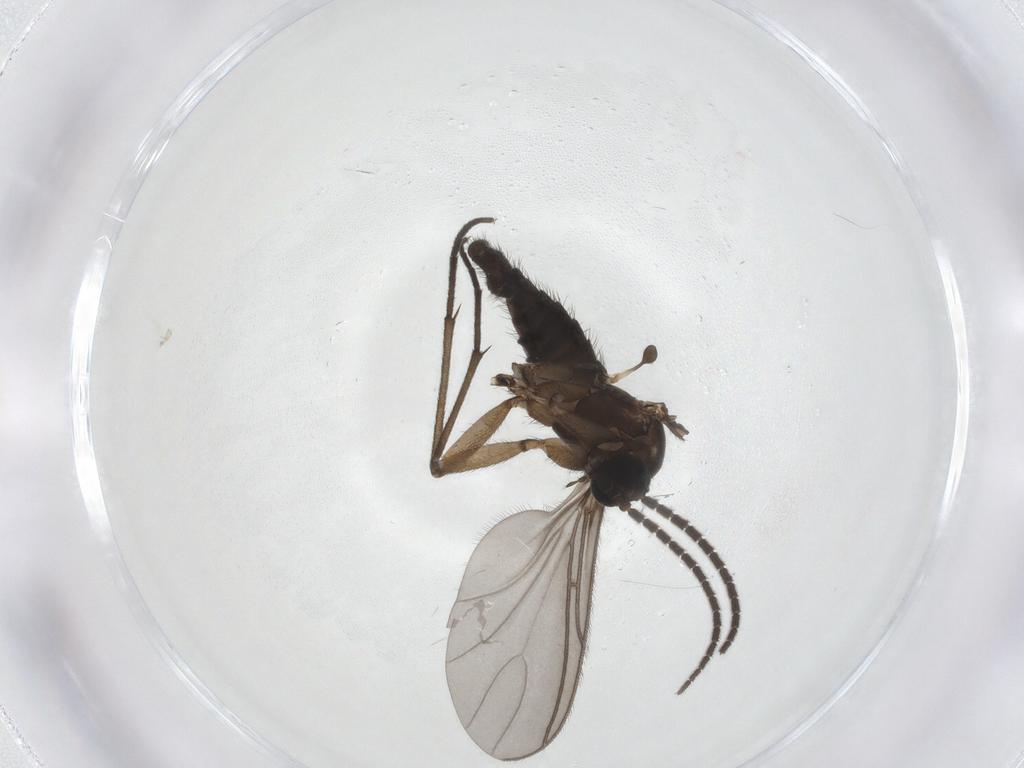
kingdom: Animalia
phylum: Arthropoda
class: Insecta
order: Diptera
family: Sciaridae
